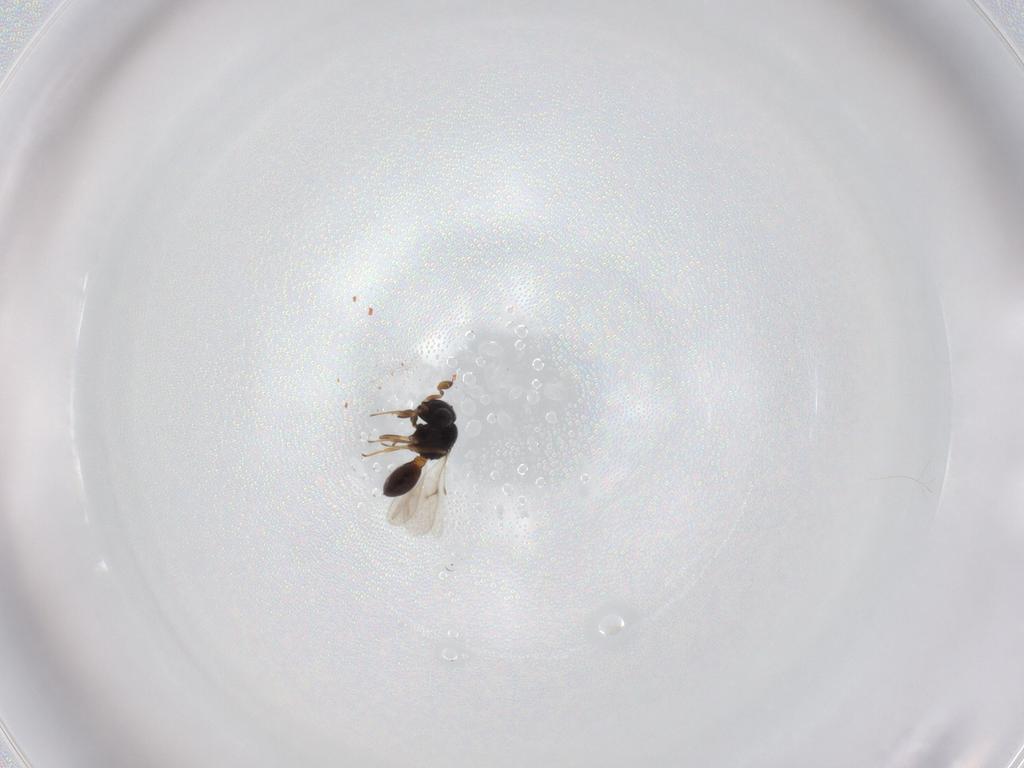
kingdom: Animalia
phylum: Arthropoda
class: Insecta
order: Hymenoptera
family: Scelionidae
